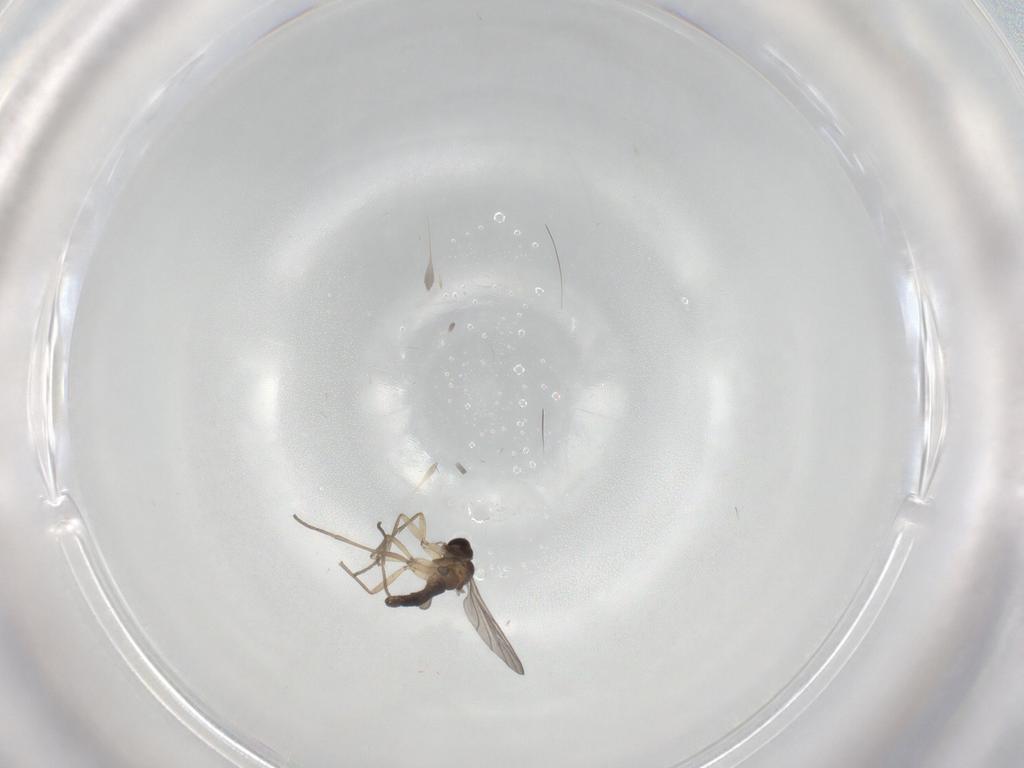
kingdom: Animalia
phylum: Arthropoda
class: Insecta
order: Diptera
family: Sciaridae
